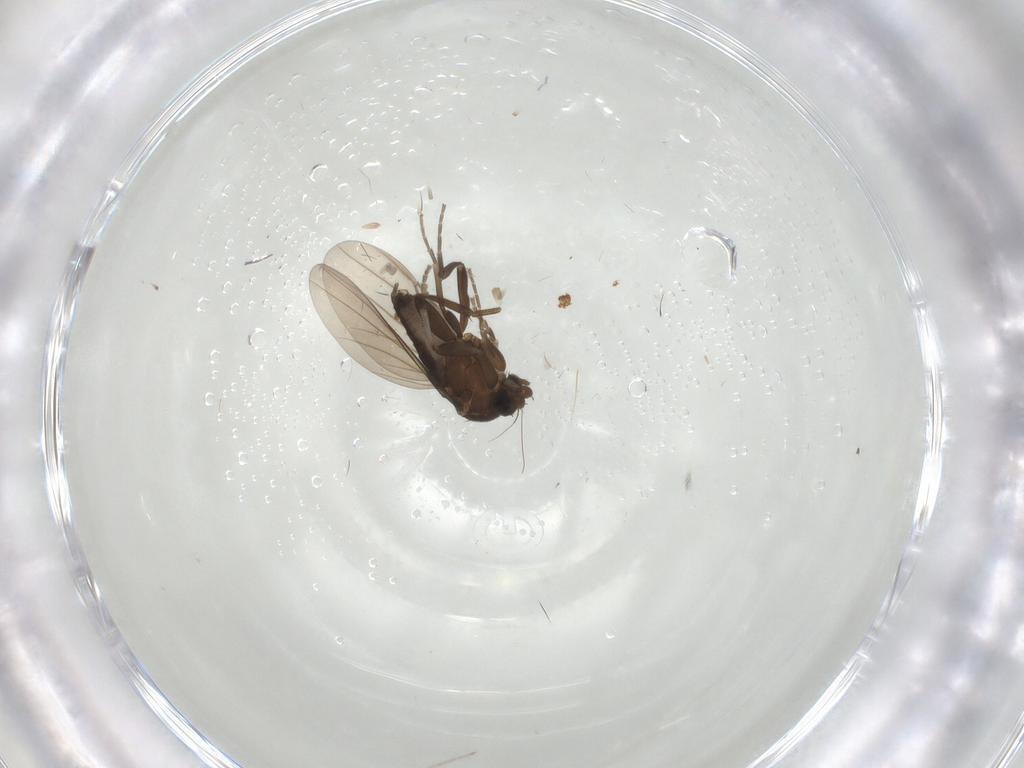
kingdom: Animalia
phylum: Arthropoda
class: Insecta
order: Diptera
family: Phoridae
